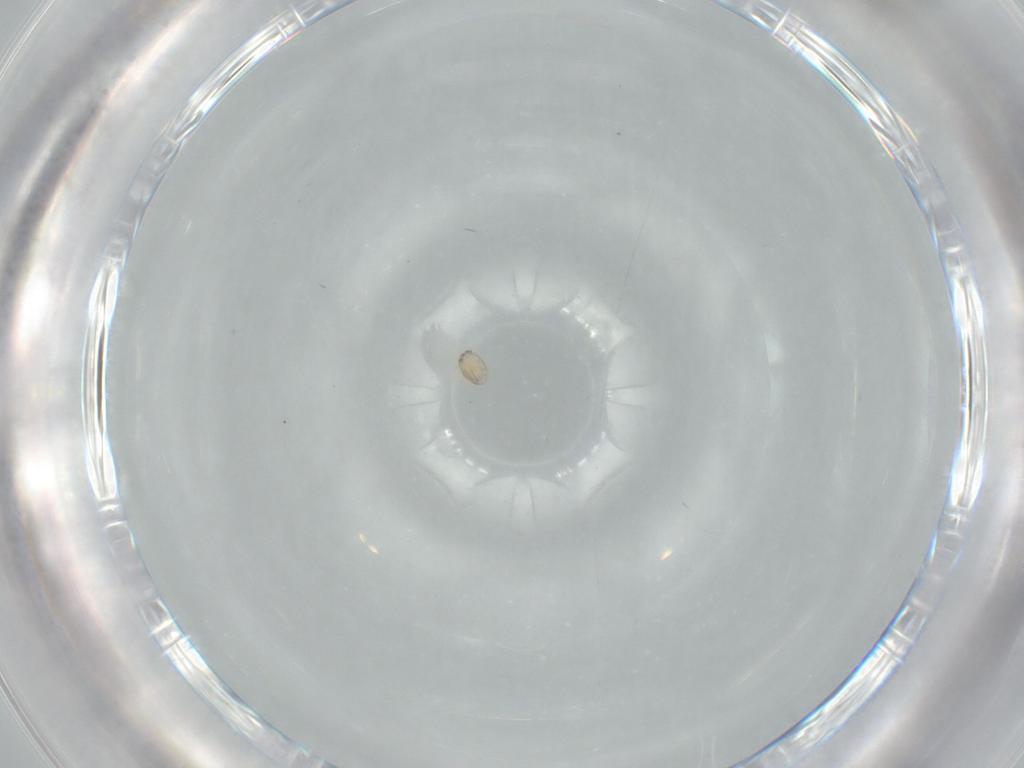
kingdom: Animalia
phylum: Arthropoda
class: Arachnida
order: Sarcoptiformes
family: Acaridae
